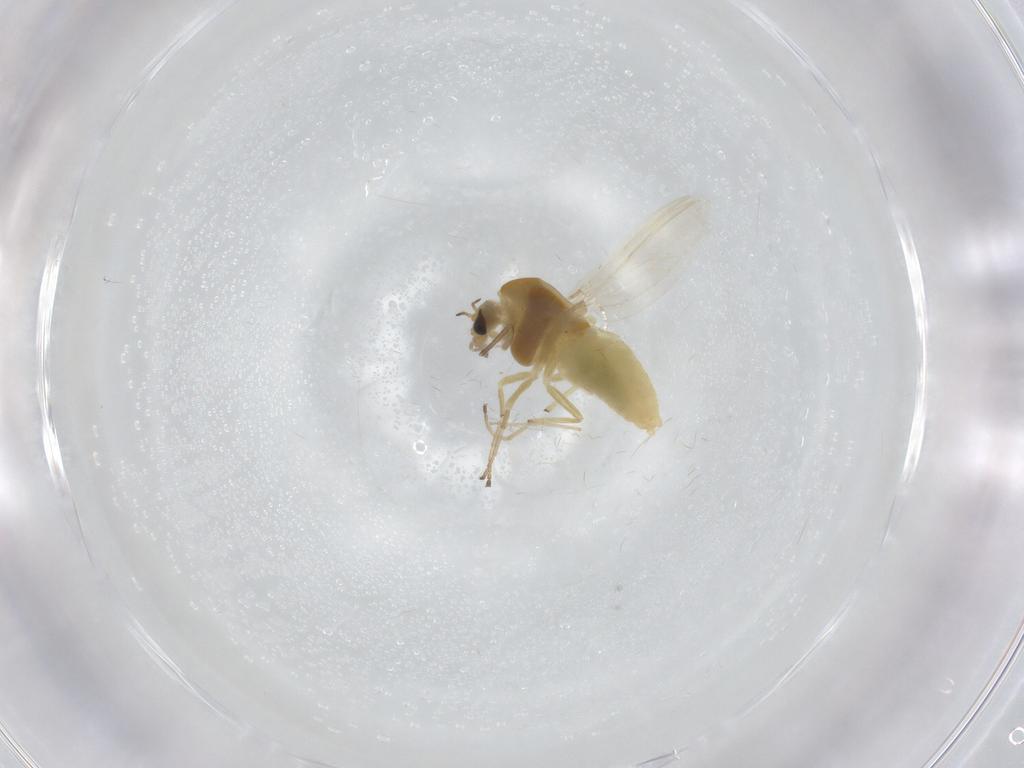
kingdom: Animalia
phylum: Arthropoda
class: Insecta
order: Diptera
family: Chironomidae
